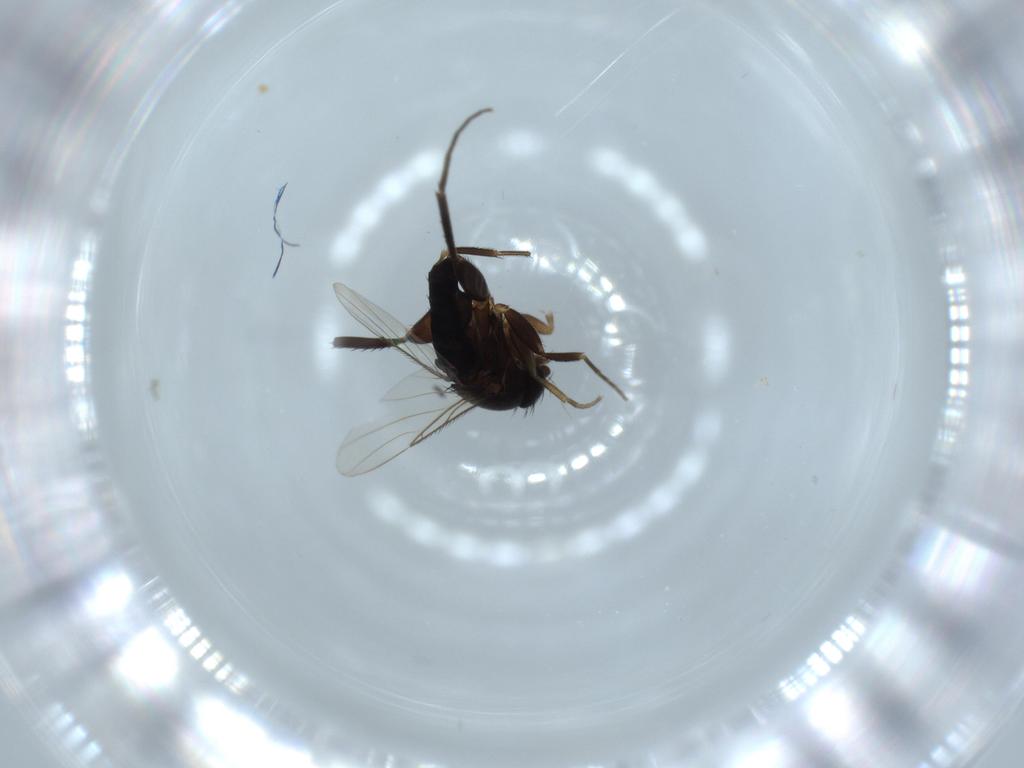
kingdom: Animalia
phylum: Arthropoda
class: Insecta
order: Diptera
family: Phoridae
